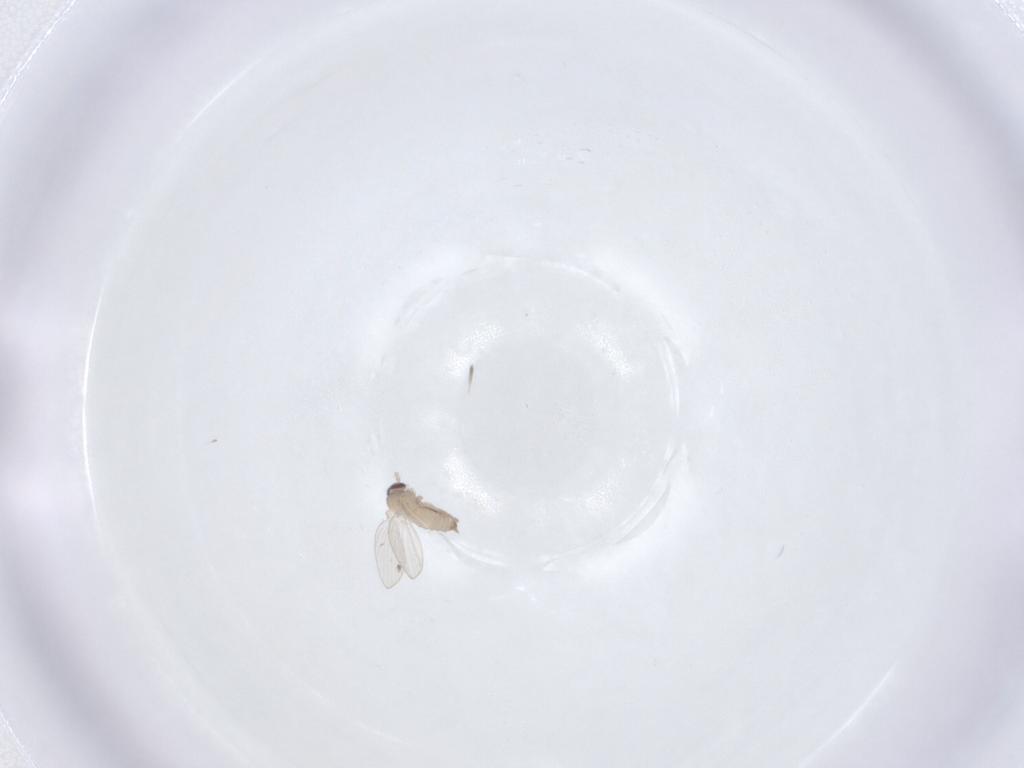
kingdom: Animalia
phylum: Arthropoda
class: Insecta
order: Diptera
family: Psychodidae
